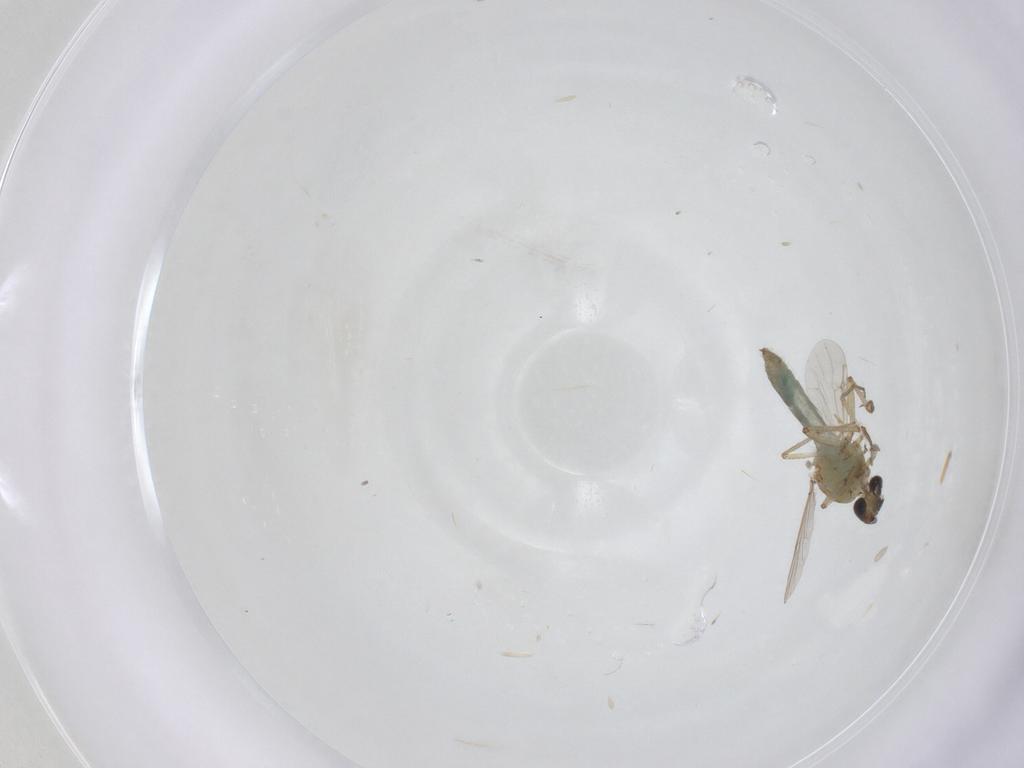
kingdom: Animalia
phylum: Arthropoda
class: Insecta
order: Diptera
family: Ceratopogonidae
